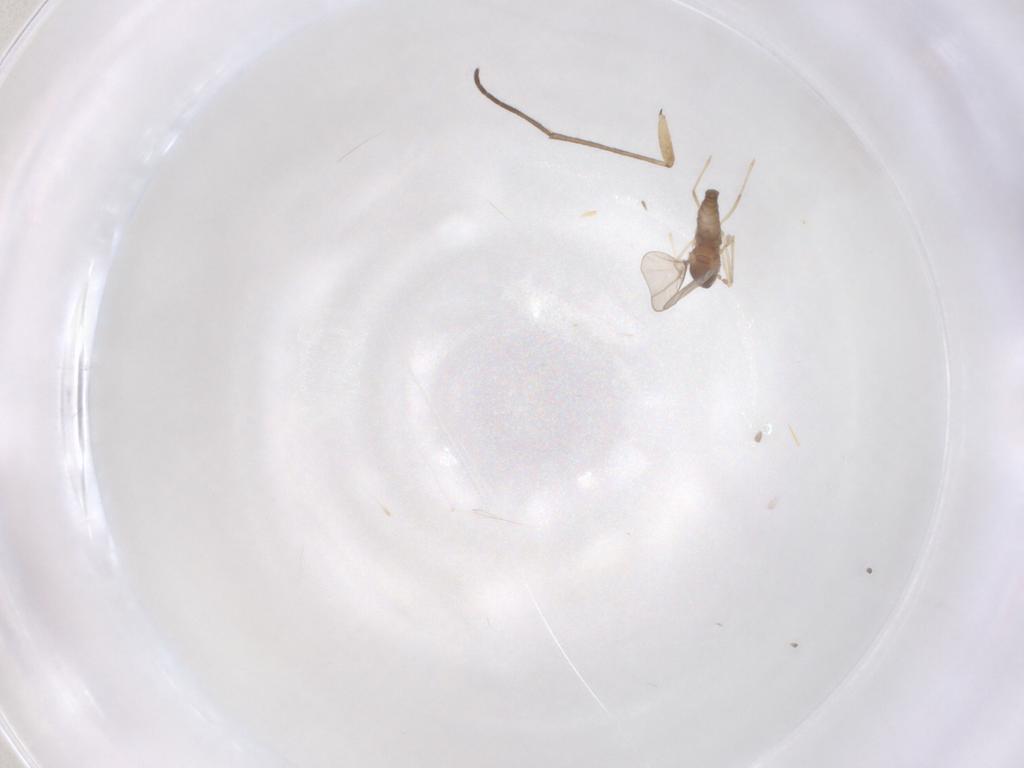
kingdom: Animalia
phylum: Arthropoda
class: Insecta
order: Diptera
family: Sciaridae
